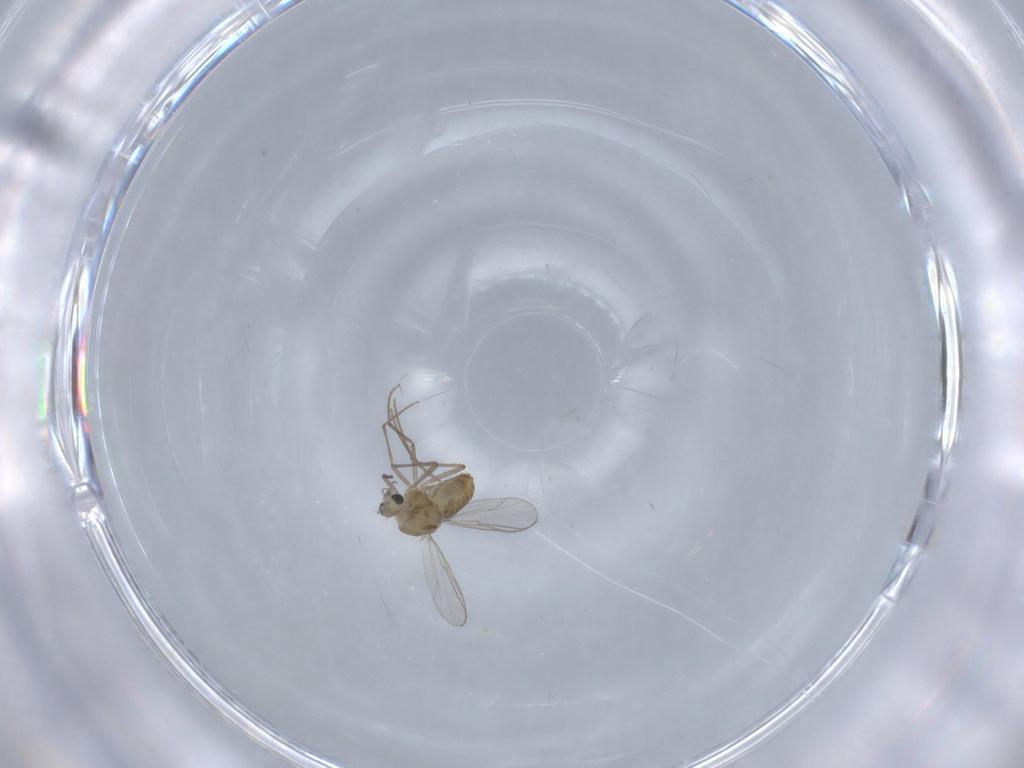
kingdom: Animalia
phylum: Arthropoda
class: Insecta
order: Diptera
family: Chironomidae
